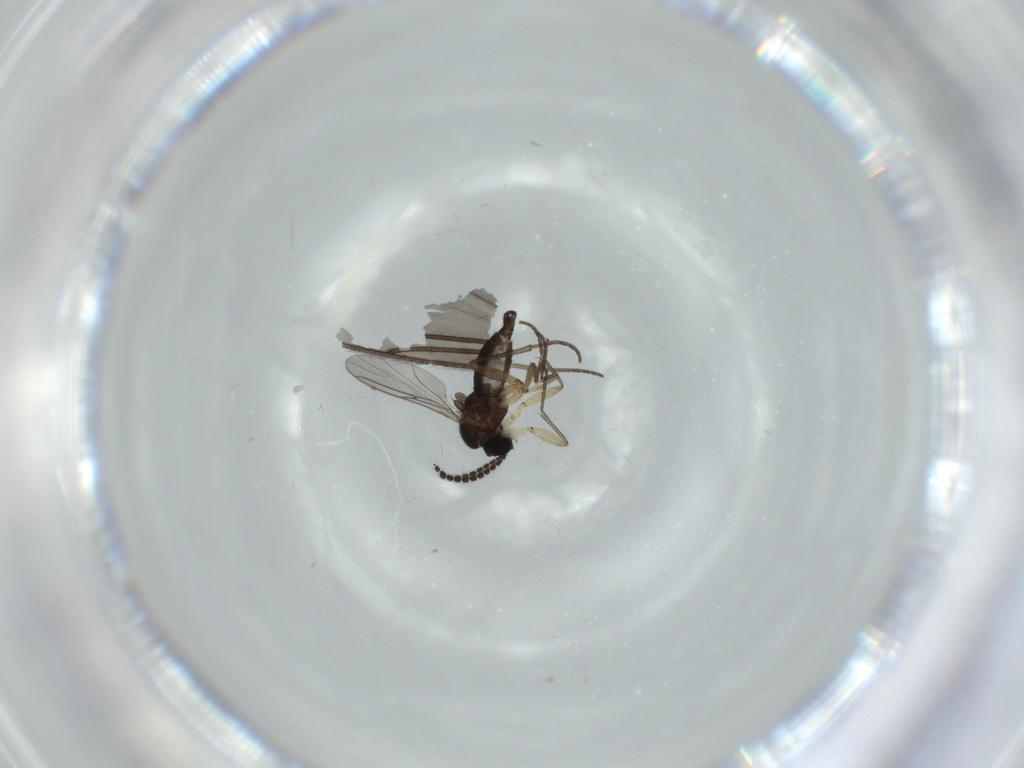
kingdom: Animalia
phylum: Arthropoda
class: Insecta
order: Diptera
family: Sciaridae
